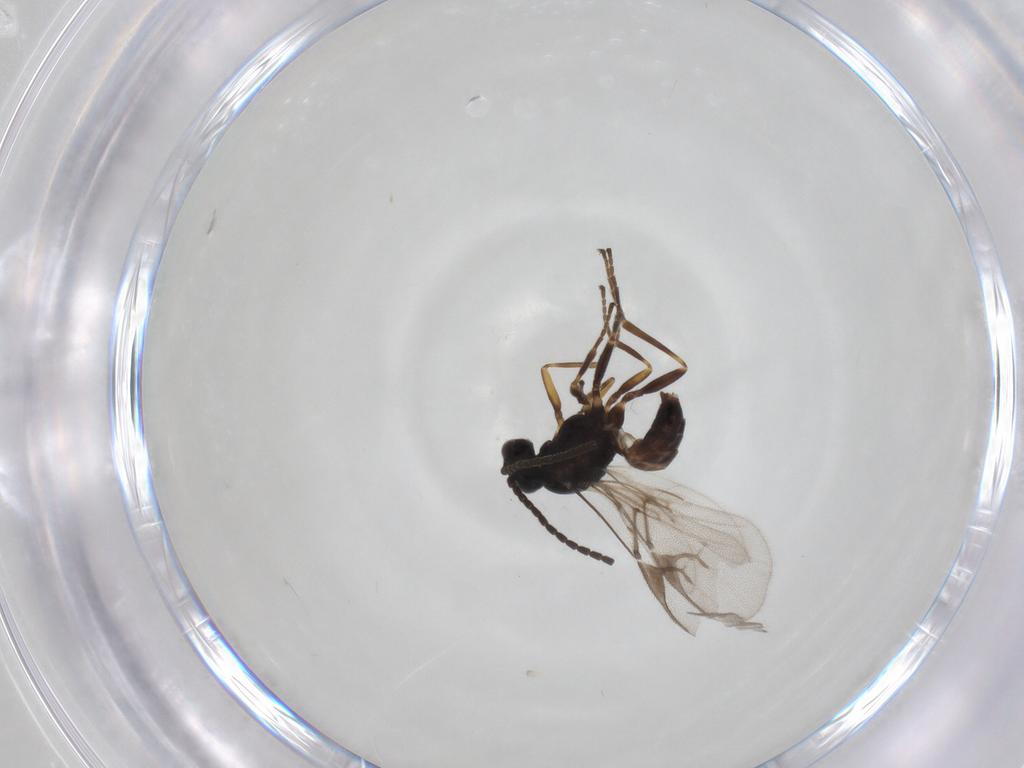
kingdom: Animalia
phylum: Arthropoda
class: Insecta
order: Hymenoptera
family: Braconidae
